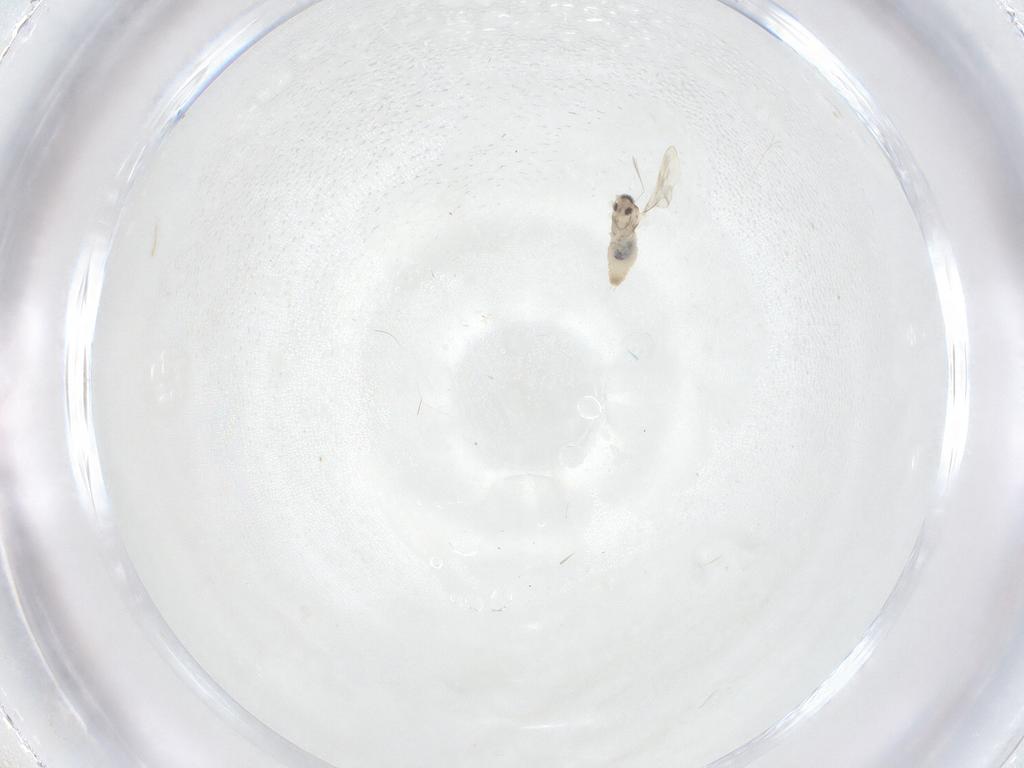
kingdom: Animalia
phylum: Arthropoda
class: Insecta
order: Diptera
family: Cecidomyiidae
